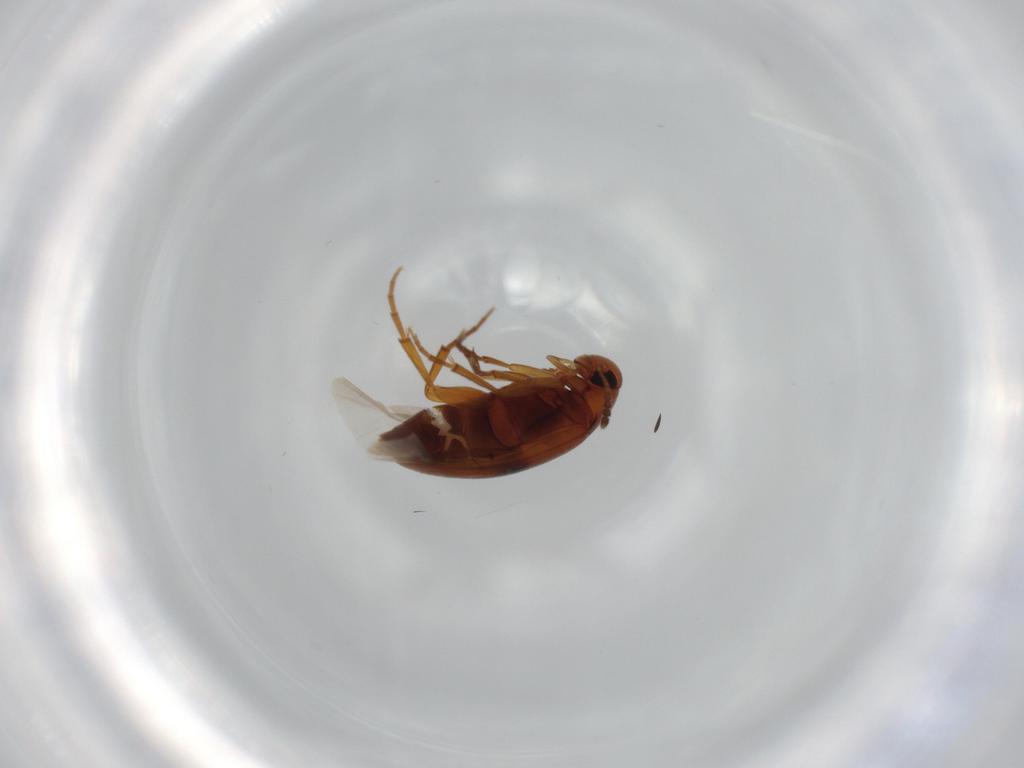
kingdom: Animalia
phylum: Arthropoda
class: Insecta
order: Coleoptera
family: Scraptiidae
